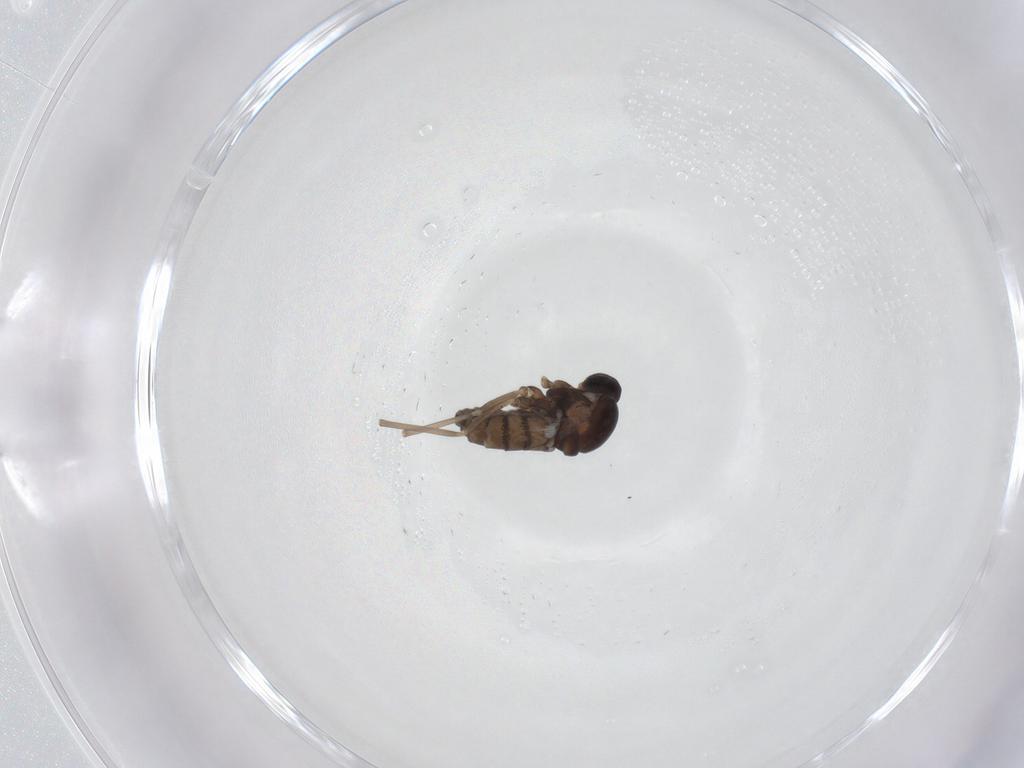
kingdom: Animalia
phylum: Arthropoda
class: Insecta
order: Diptera
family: Cecidomyiidae
